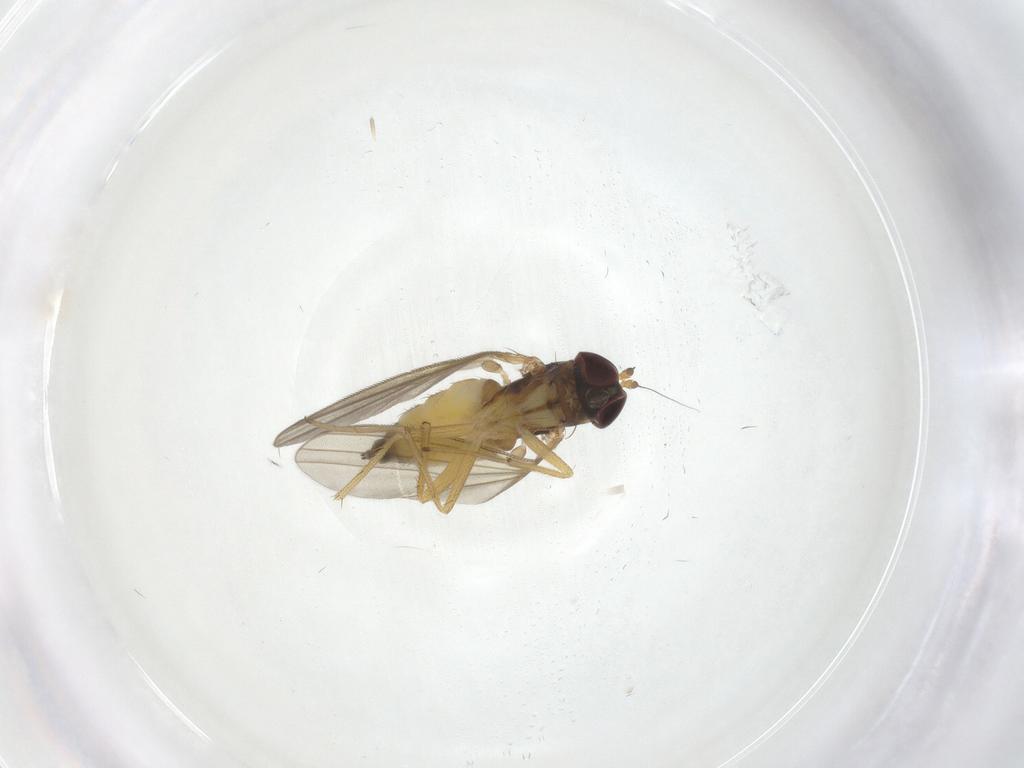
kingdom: Animalia
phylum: Arthropoda
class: Insecta
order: Diptera
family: Dolichopodidae
